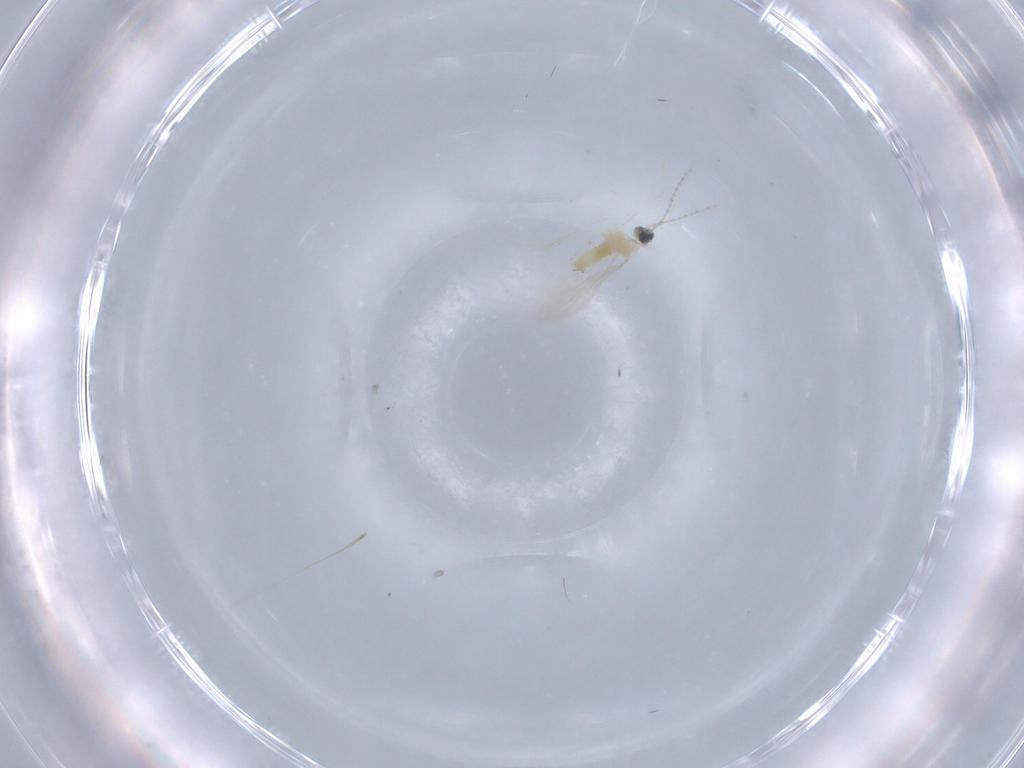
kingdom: Animalia
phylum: Arthropoda
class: Insecta
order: Diptera
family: Cecidomyiidae
